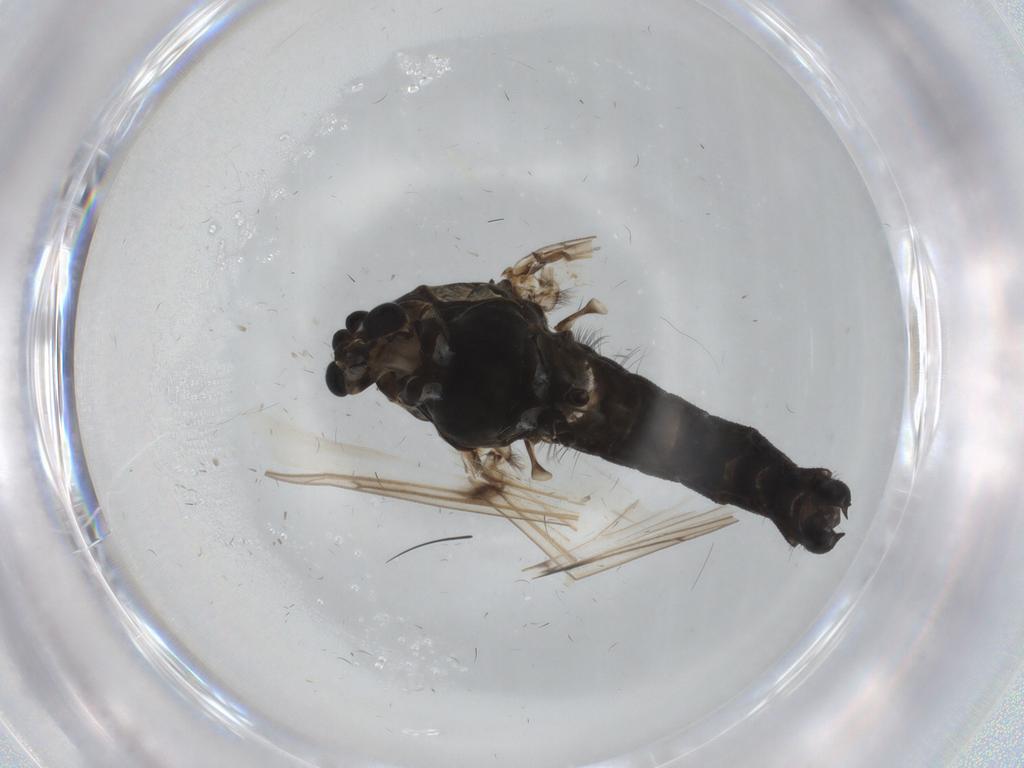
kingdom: Animalia
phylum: Arthropoda
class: Insecta
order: Diptera
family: Chironomidae
